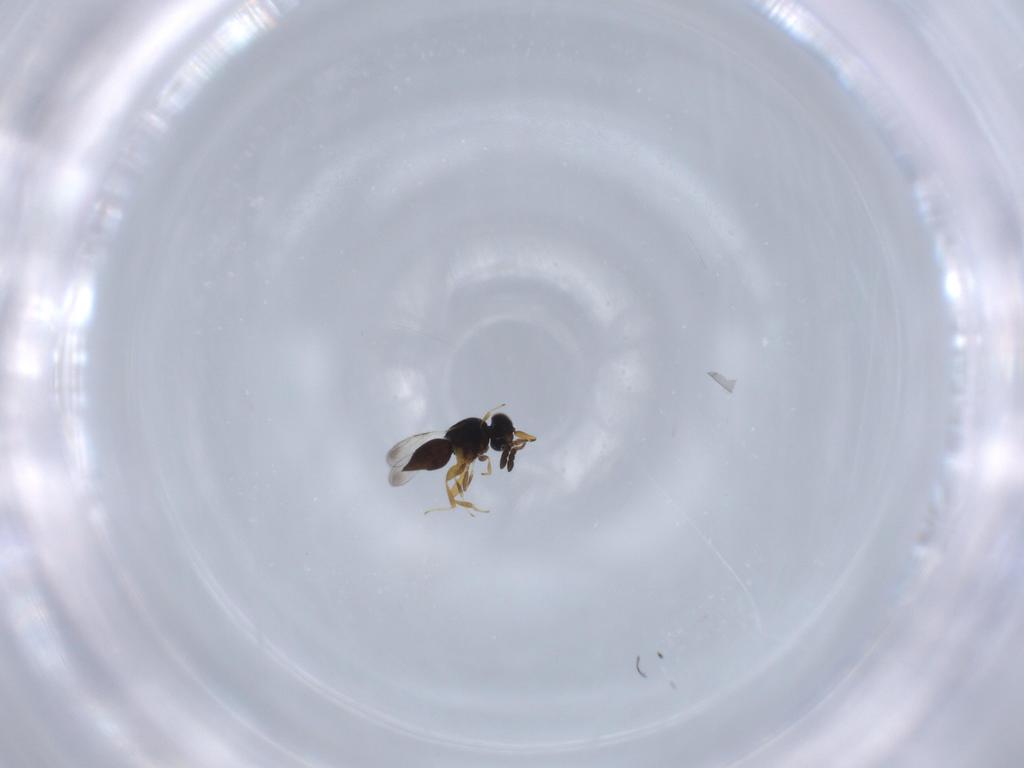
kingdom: Animalia
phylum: Arthropoda
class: Insecta
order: Hymenoptera
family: Ceraphronidae
